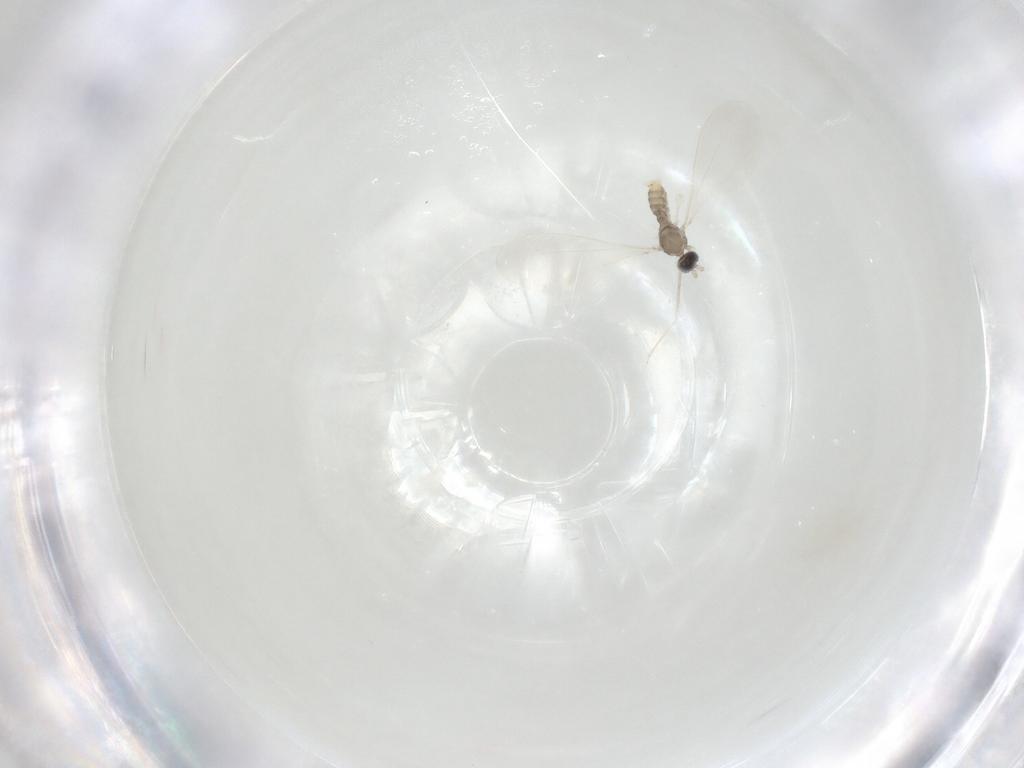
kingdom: Animalia
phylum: Arthropoda
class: Insecta
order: Diptera
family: Cecidomyiidae
